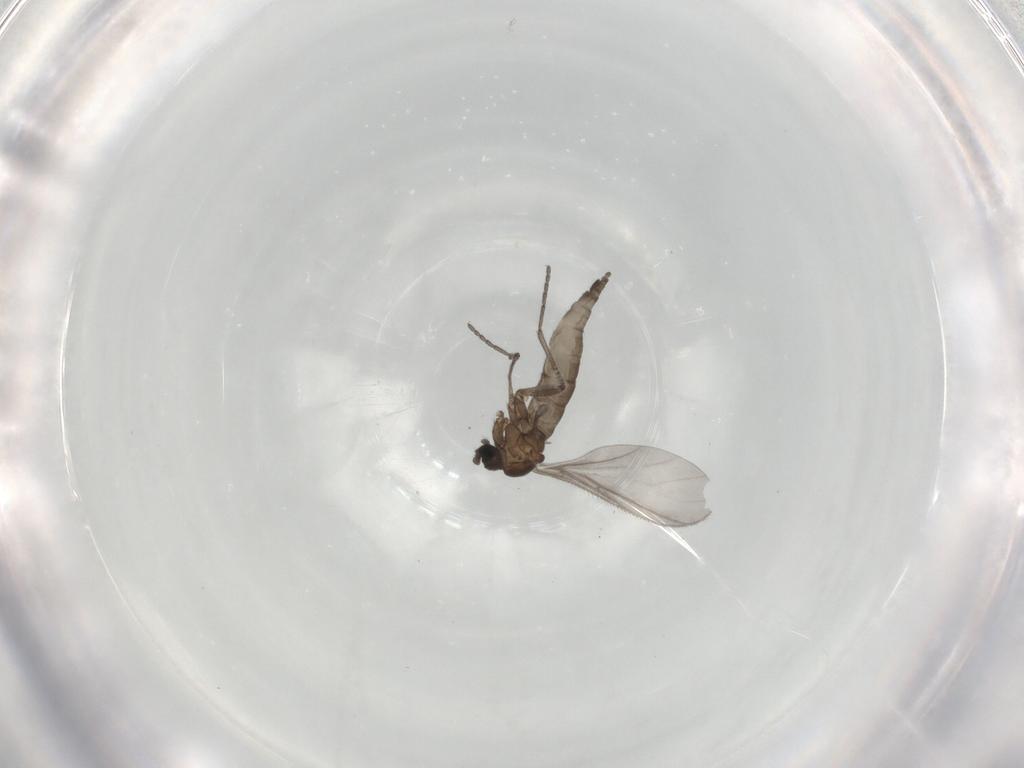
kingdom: Animalia
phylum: Arthropoda
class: Insecta
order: Diptera
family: Sciaridae
